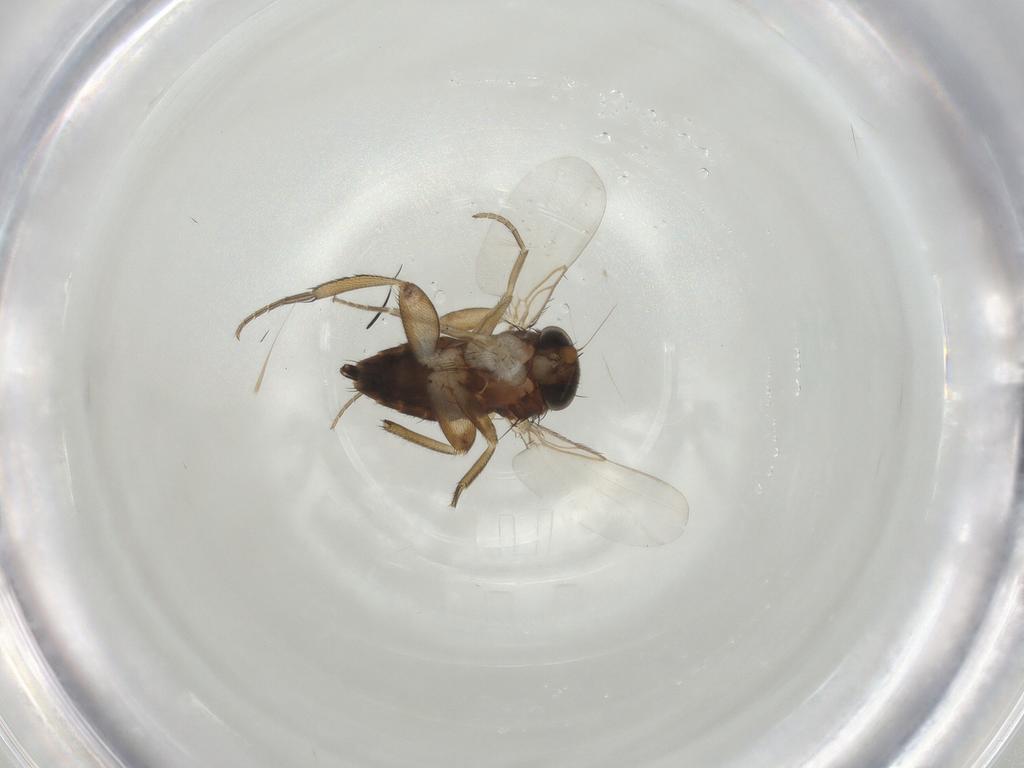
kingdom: Animalia
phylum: Arthropoda
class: Insecta
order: Diptera
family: Phoridae
